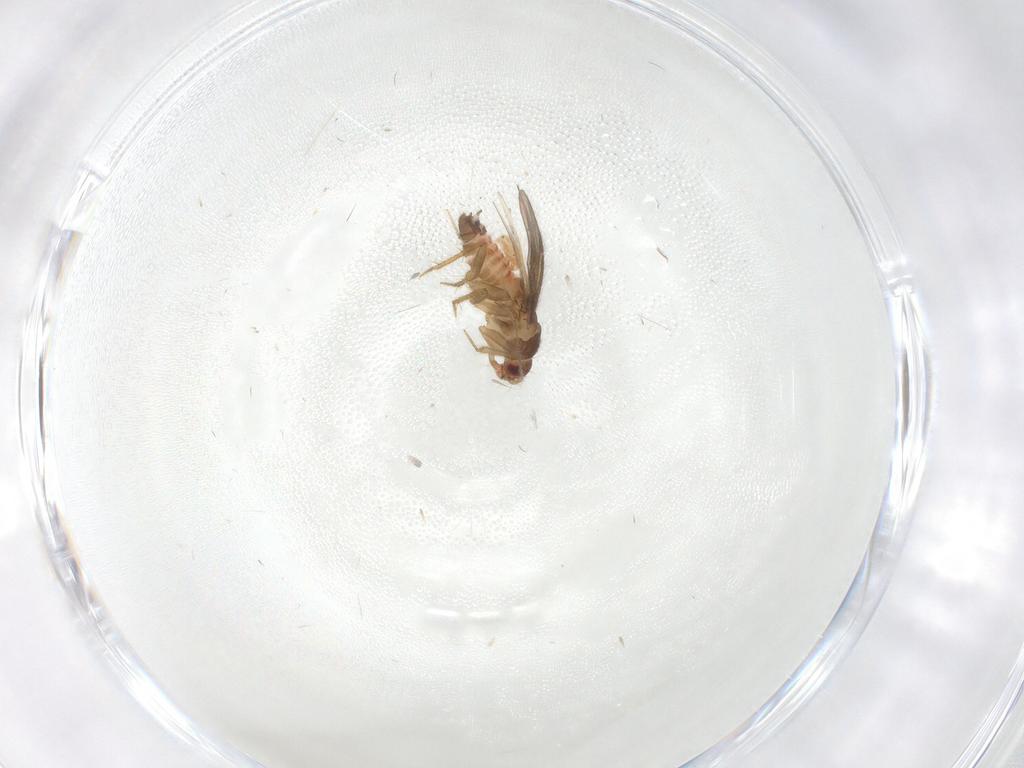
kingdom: Animalia
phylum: Arthropoda
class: Insecta
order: Hemiptera
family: Ceratocombidae
